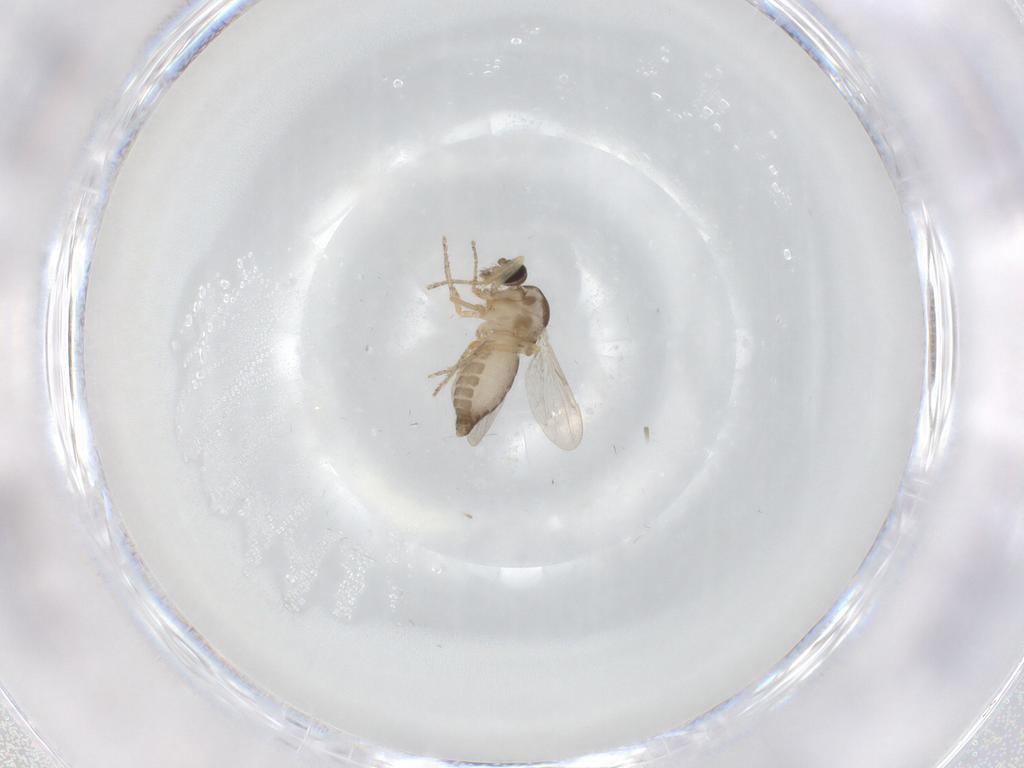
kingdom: Animalia
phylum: Arthropoda
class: Insecta
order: Diptera
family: Ceratopogonidae
